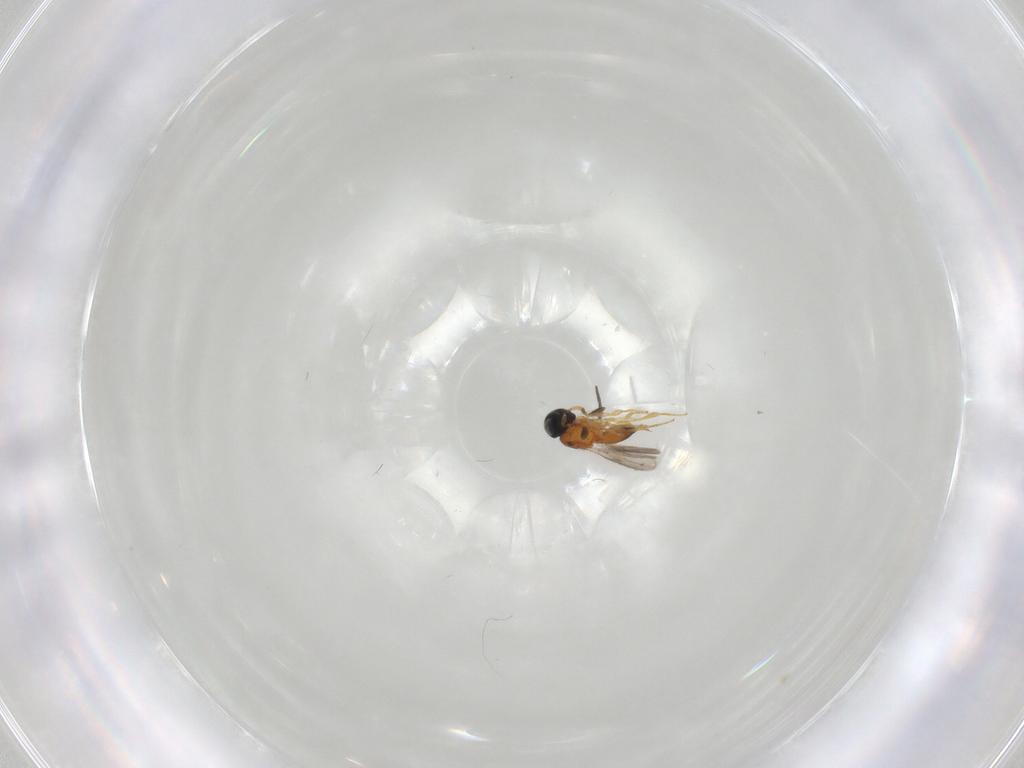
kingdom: Animalia
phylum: Arthropoda
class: Insecta
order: Hymenoptera
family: Scelionidae
